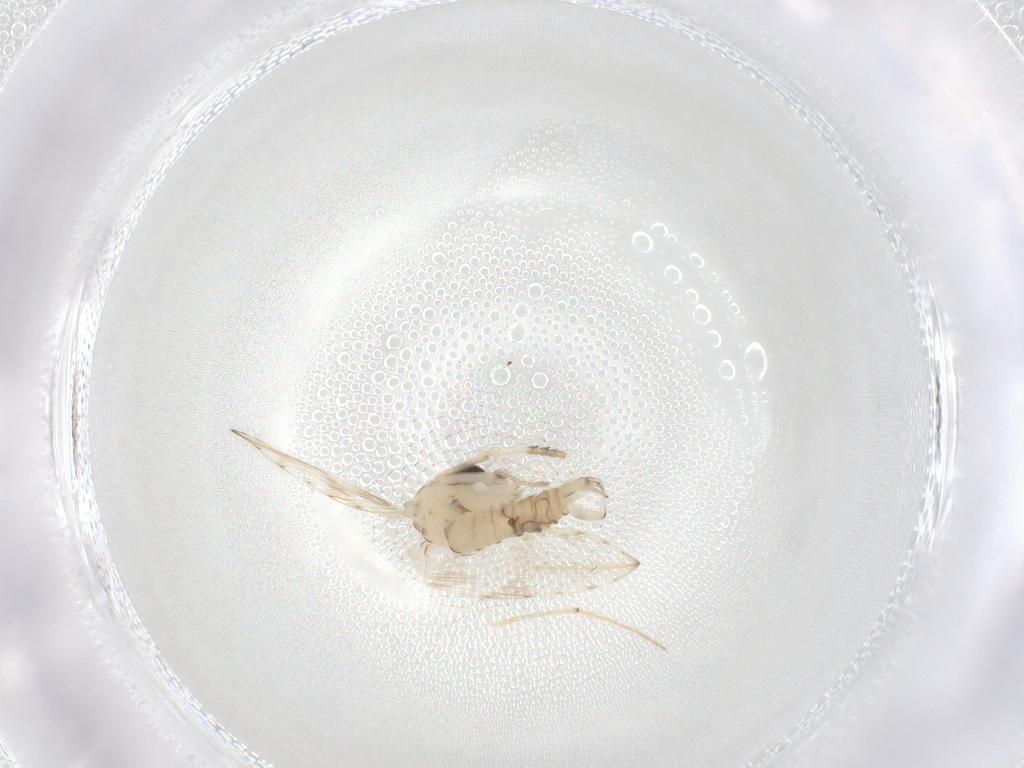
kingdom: Animalia
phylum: Arthropoda
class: Insecta
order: Diptera
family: Psychodidae
